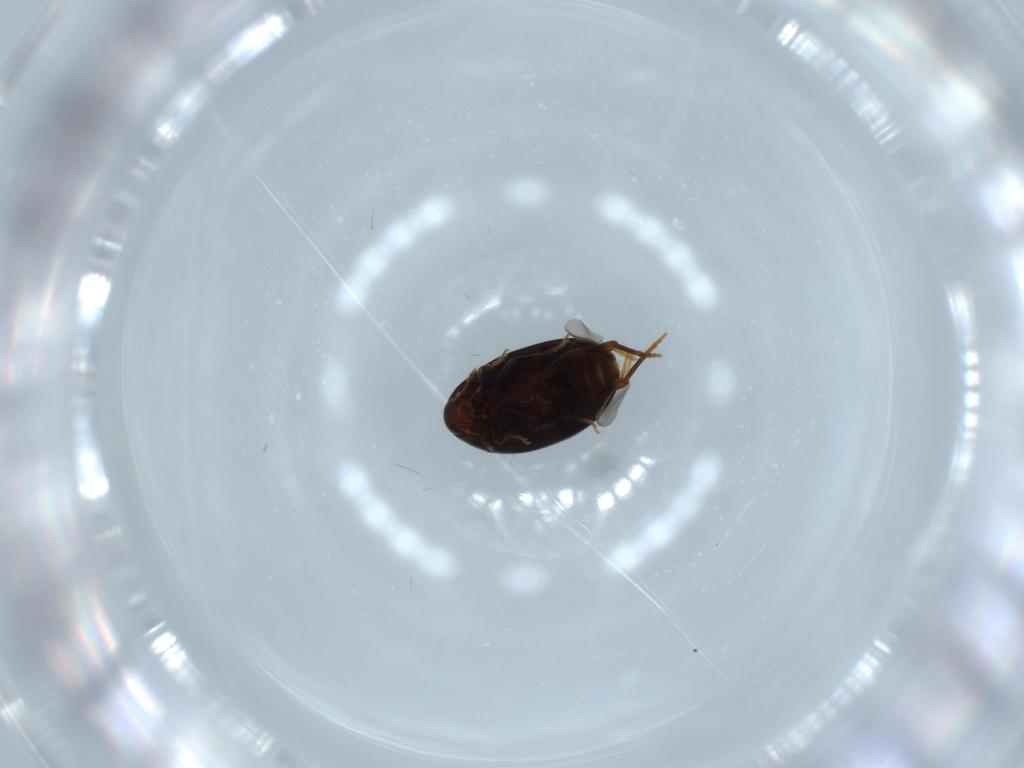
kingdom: Animalia
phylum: Arthropoda
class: Insecta
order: Coleoptera
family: Melandryidae
